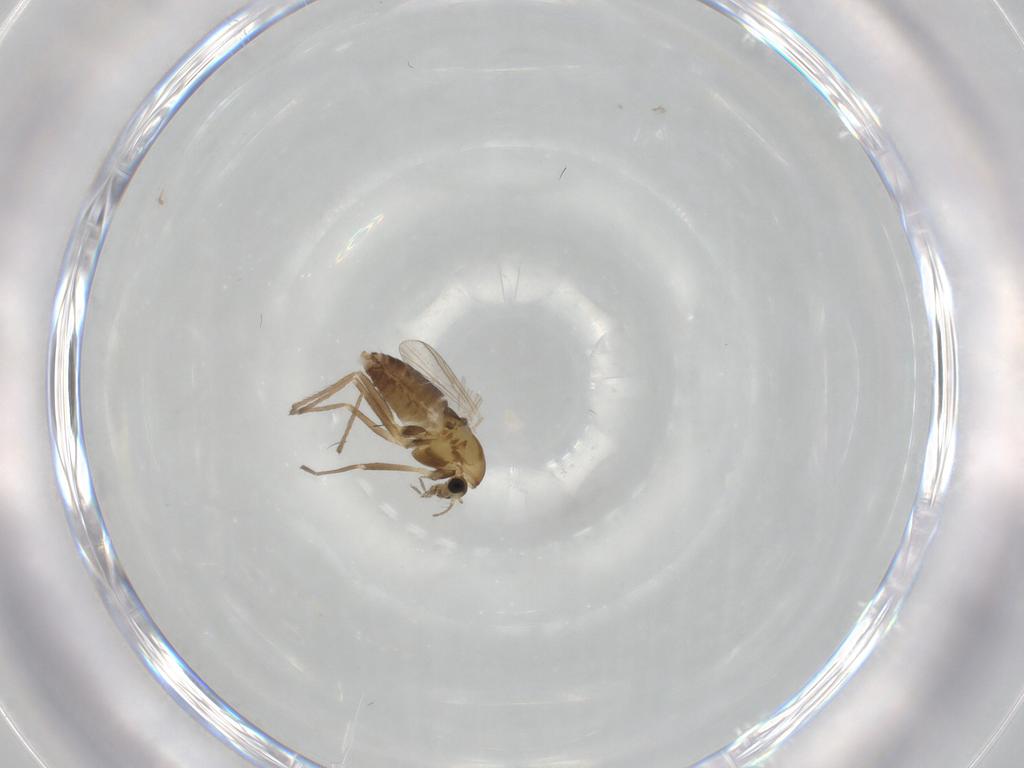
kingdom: Animalia
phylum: Arthropoda
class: Insecta
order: Diptera
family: Chironomidae
